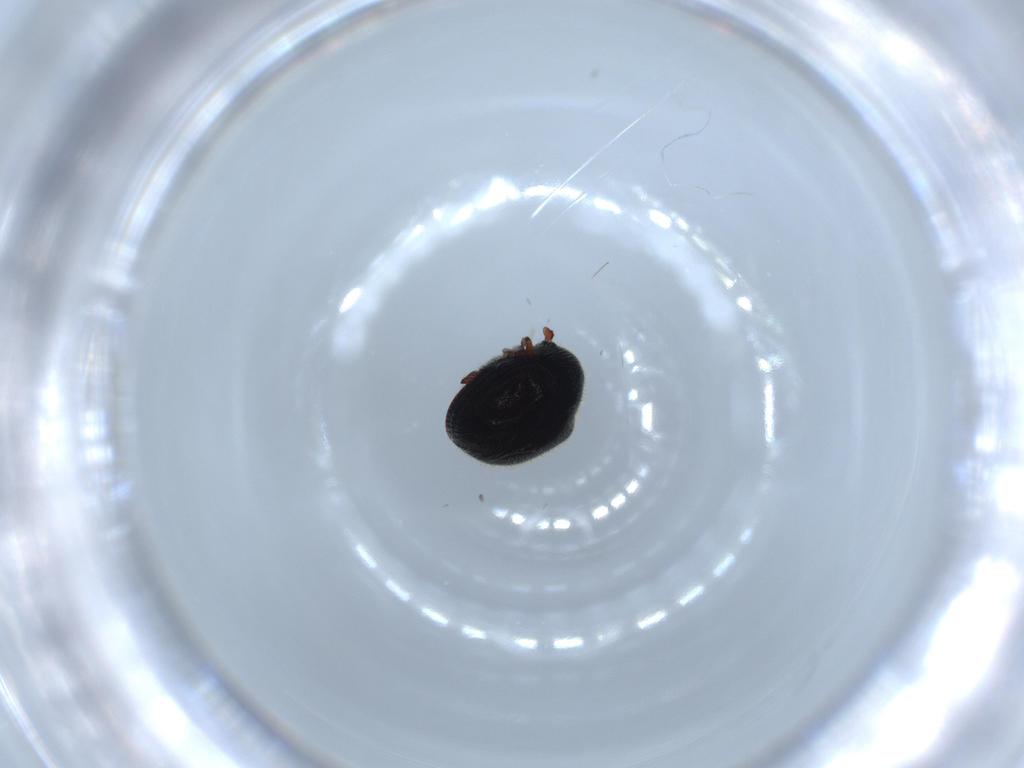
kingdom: Animalia
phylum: Arthropoda
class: Insecta
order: Coleoptera
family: Ptinidae
